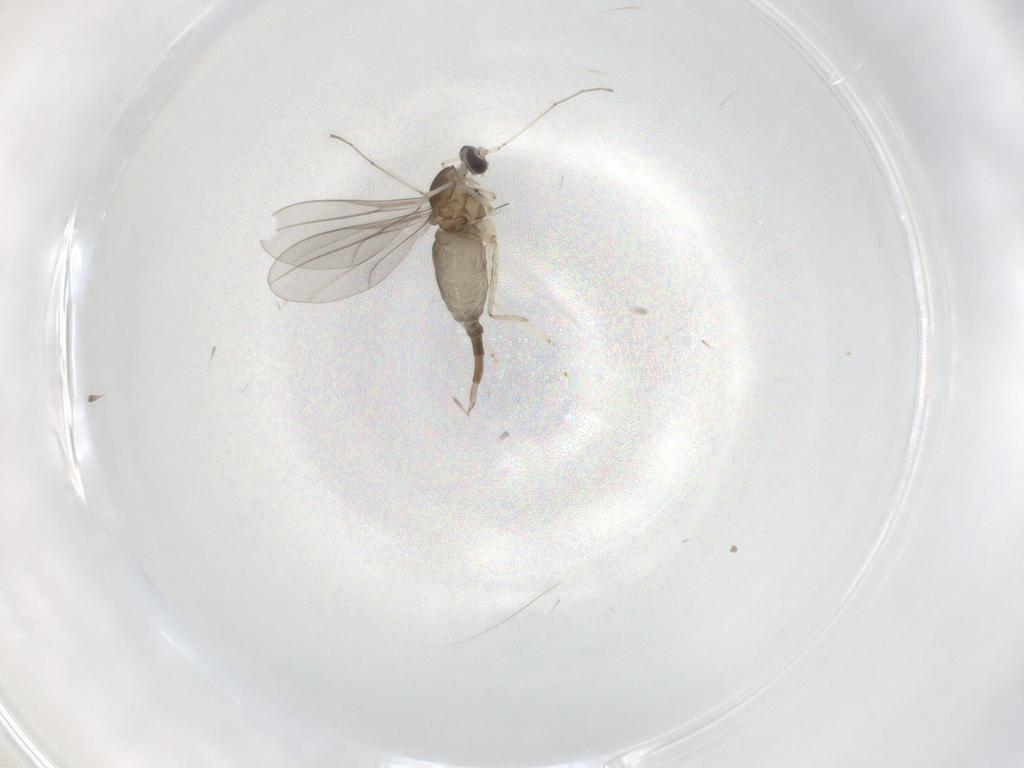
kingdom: Animalia
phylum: Arthropoda
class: Insecta
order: Diptera
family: Cecidomyiidae
